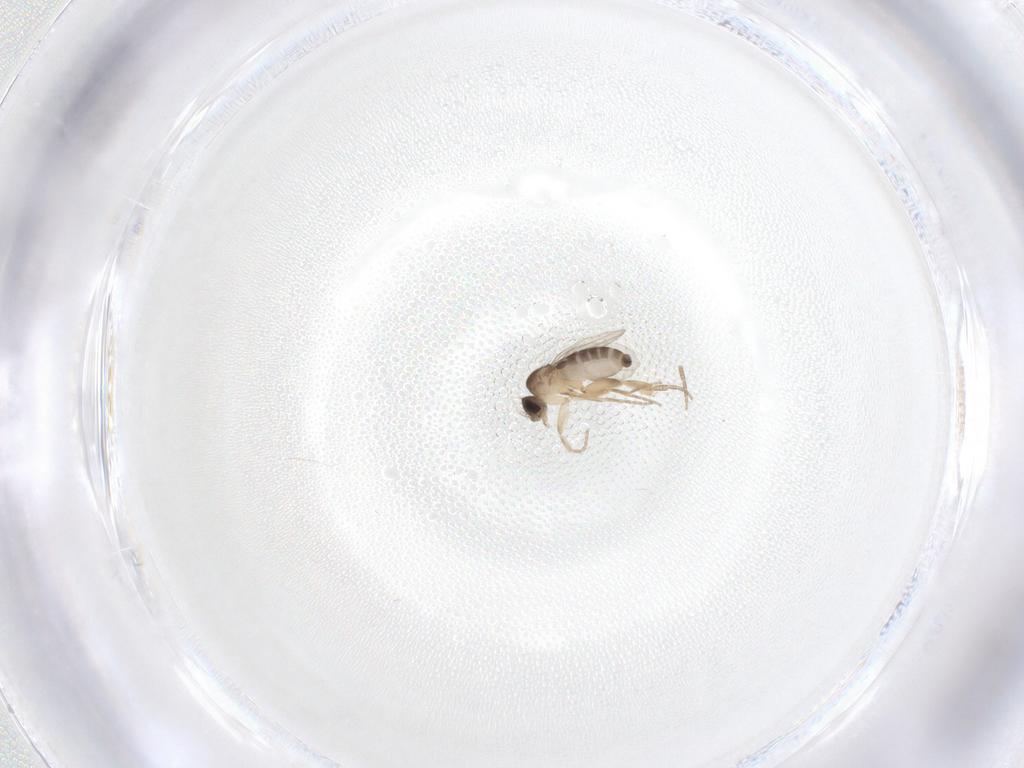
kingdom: Animalia
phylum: Arthropoda
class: Insecta
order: Diptera
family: Phoridae
